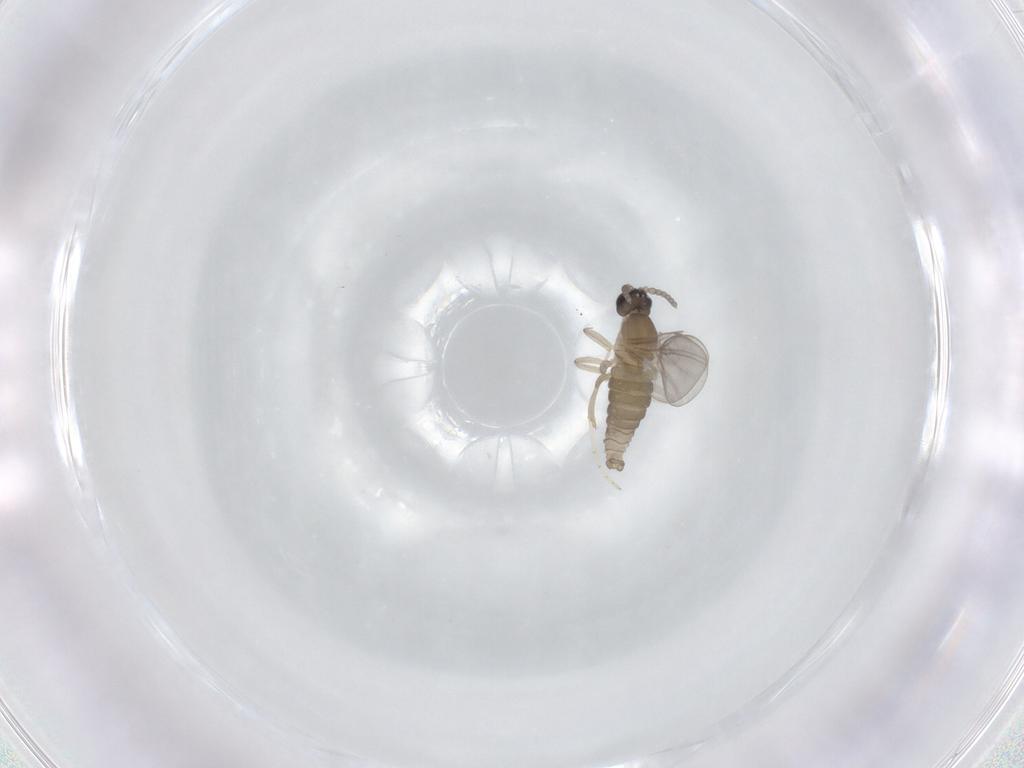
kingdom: Animalia
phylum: Arthropoda
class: Insecta
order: Diptera
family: Cecidomyiidae
